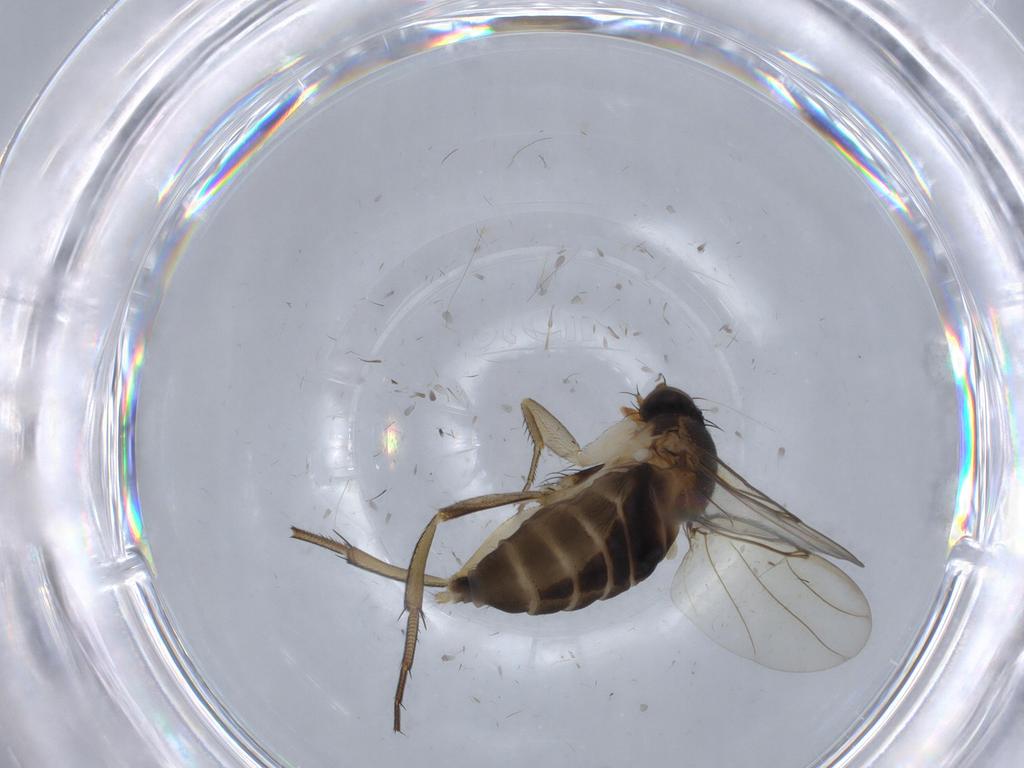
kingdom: Animalia
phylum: Arthropoda
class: Insecta
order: Diptera
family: Phoridae
